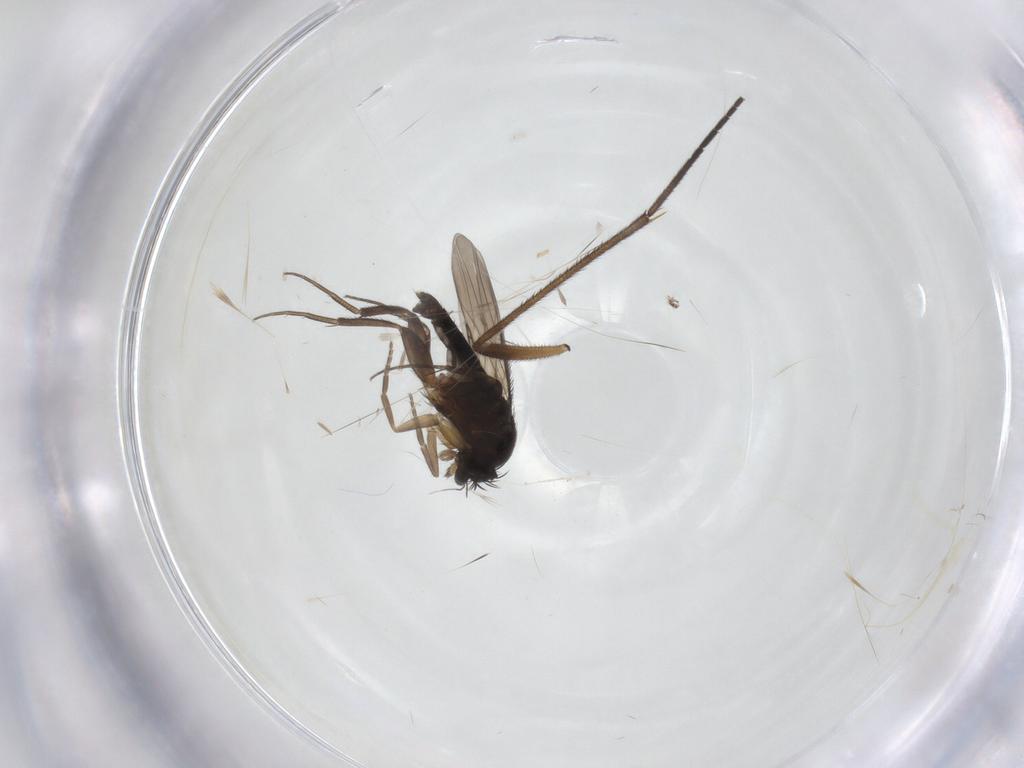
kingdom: Animalia
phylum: Arthropoda
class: Insecta
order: Diptera
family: Phoridae
